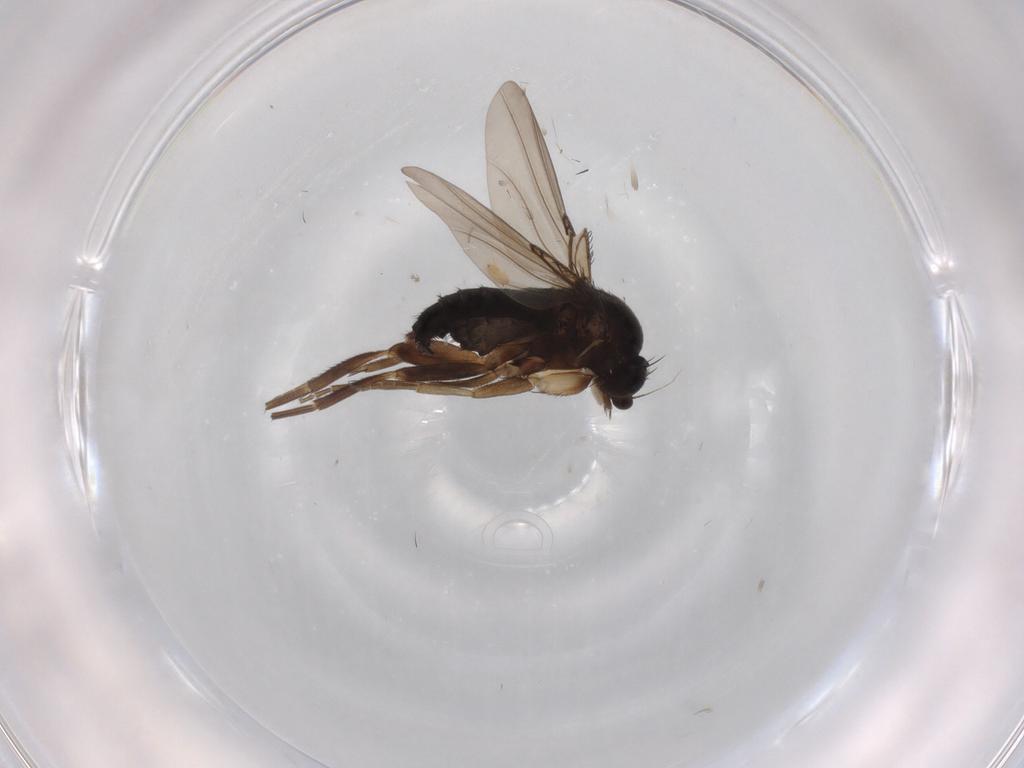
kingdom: Animalia
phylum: Arthropoda
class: Insecta
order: Diptera
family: Phoridae
